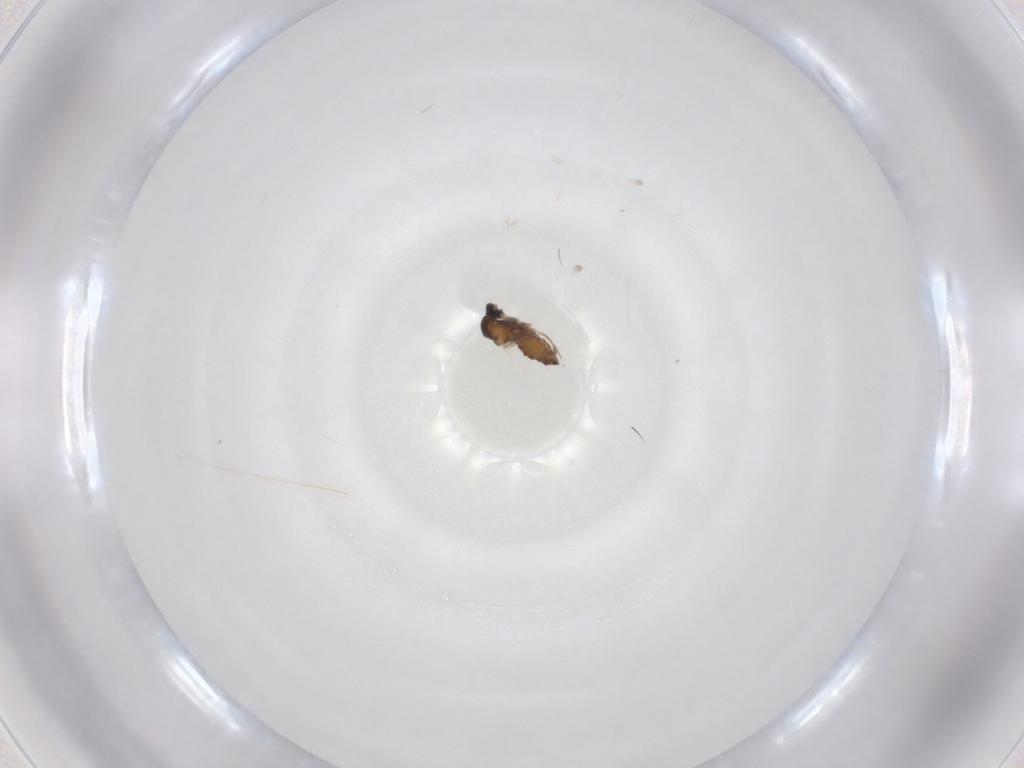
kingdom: Animalia
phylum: Arthropoda
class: Insecta
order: Diptera
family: Cecidomyiidae
